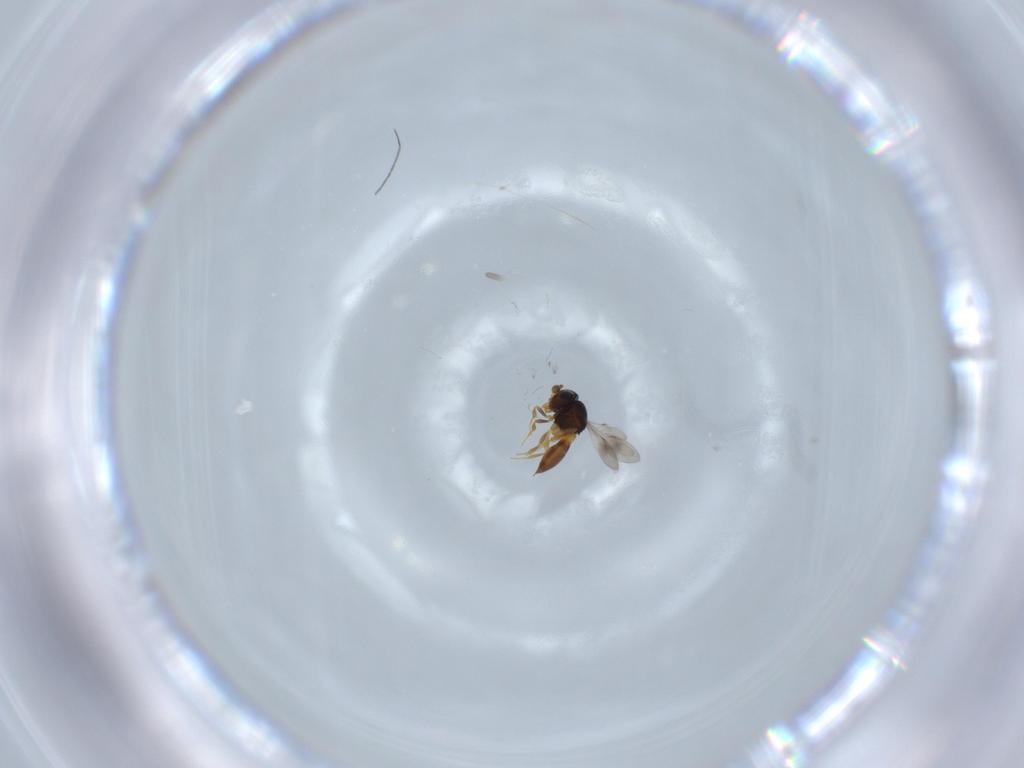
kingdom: Animalia
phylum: Arthropoda
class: Insecta
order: Hymenoptera
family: Scelionidae
